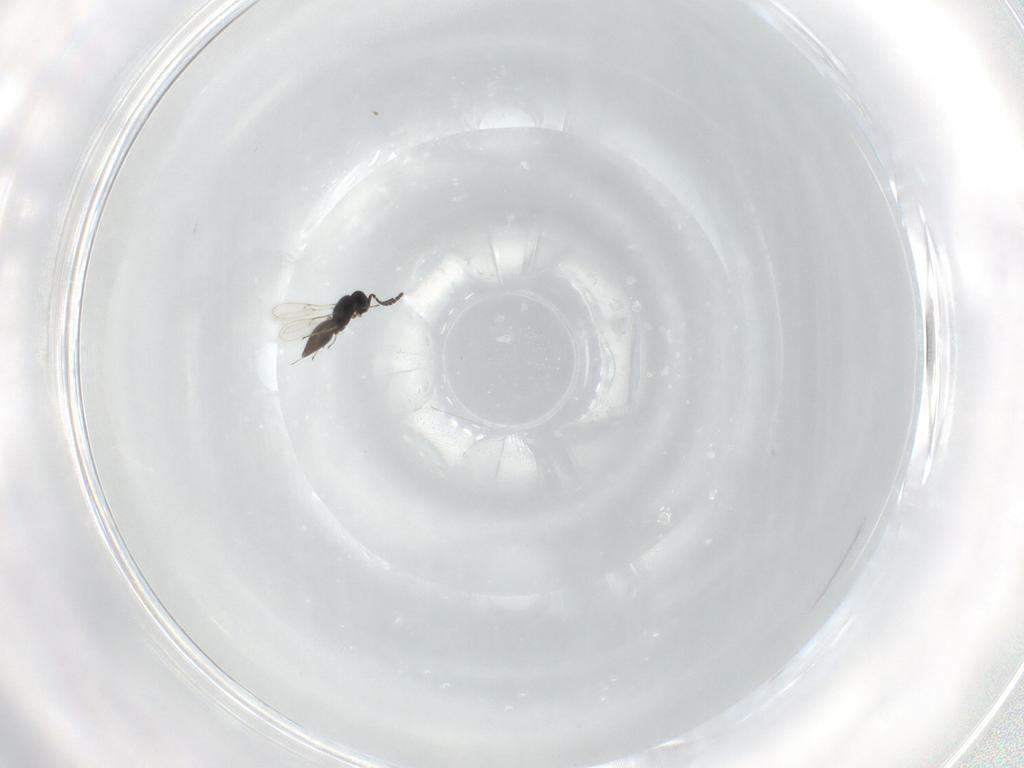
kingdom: Animalia
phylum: Arthropoda
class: Insecta
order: Hymenoptera
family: Scelionidae
